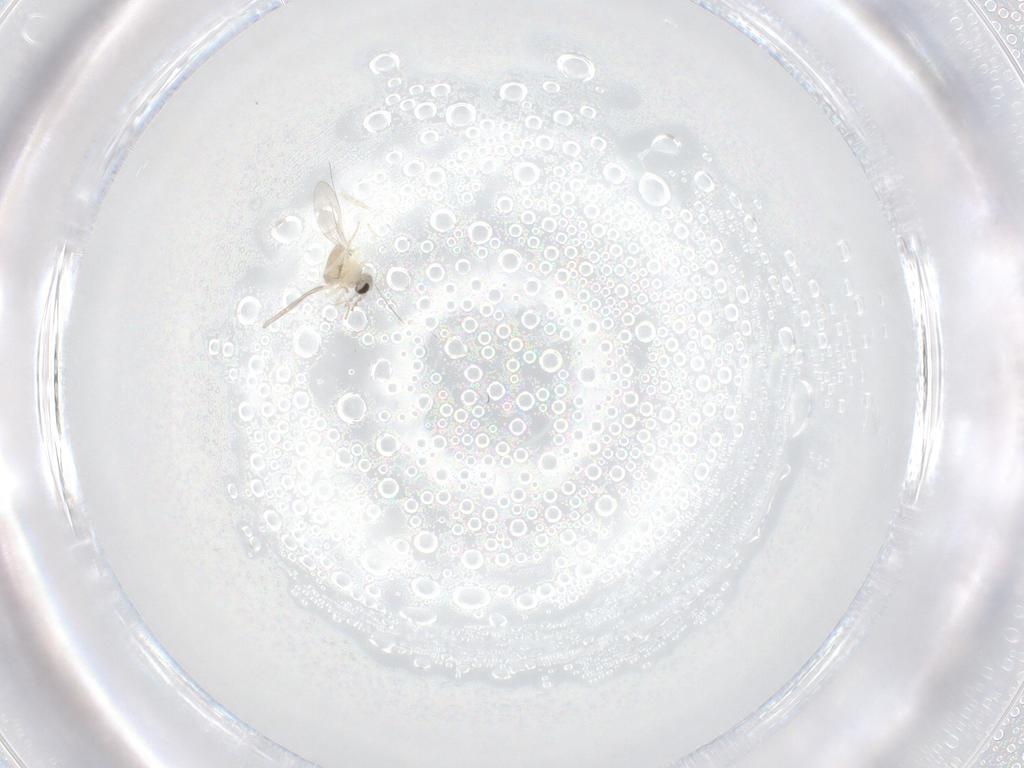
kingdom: Animalia
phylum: Arthropoda
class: Insecta
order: Diptera
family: Cecidomyiidae
